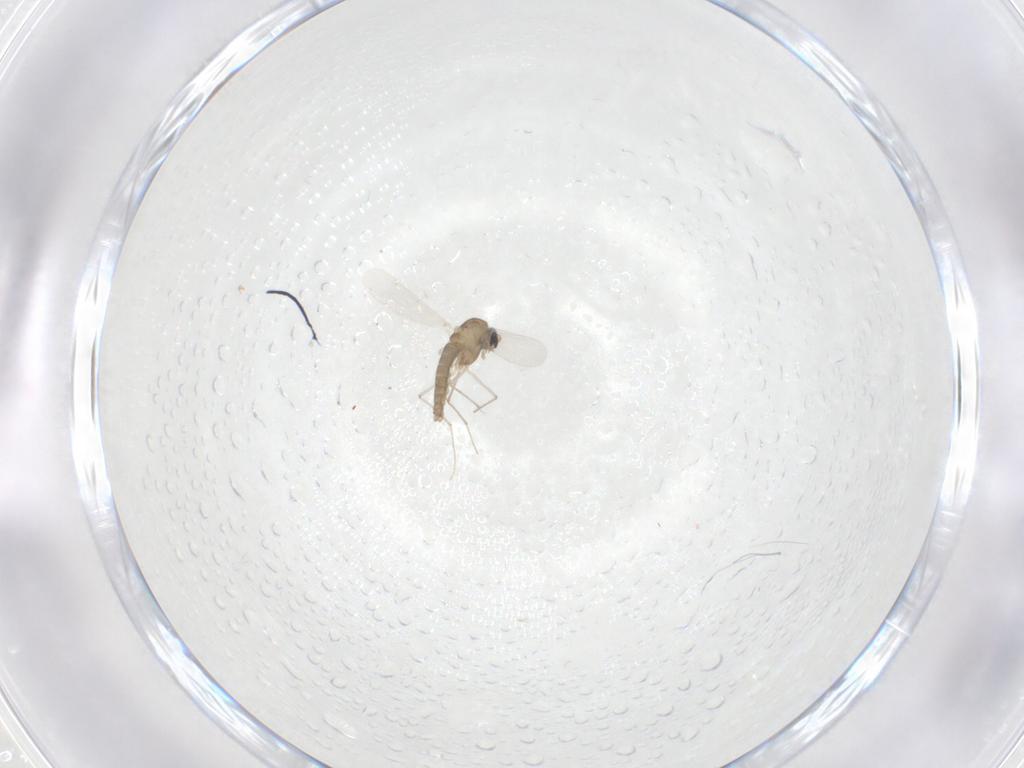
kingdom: Animalia
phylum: Arthropoda
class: Insecta
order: Diptera
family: Chironomidae
